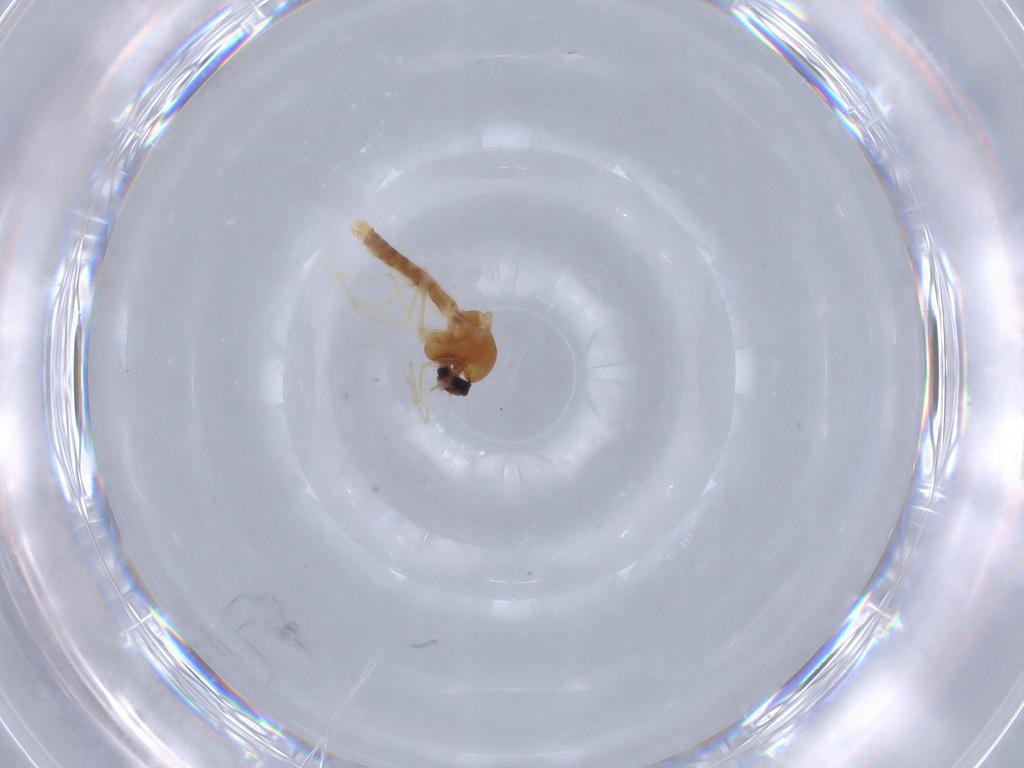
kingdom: Animalia
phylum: Arthropoda
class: Insecta
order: Diptera
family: Ceratopogonidae
